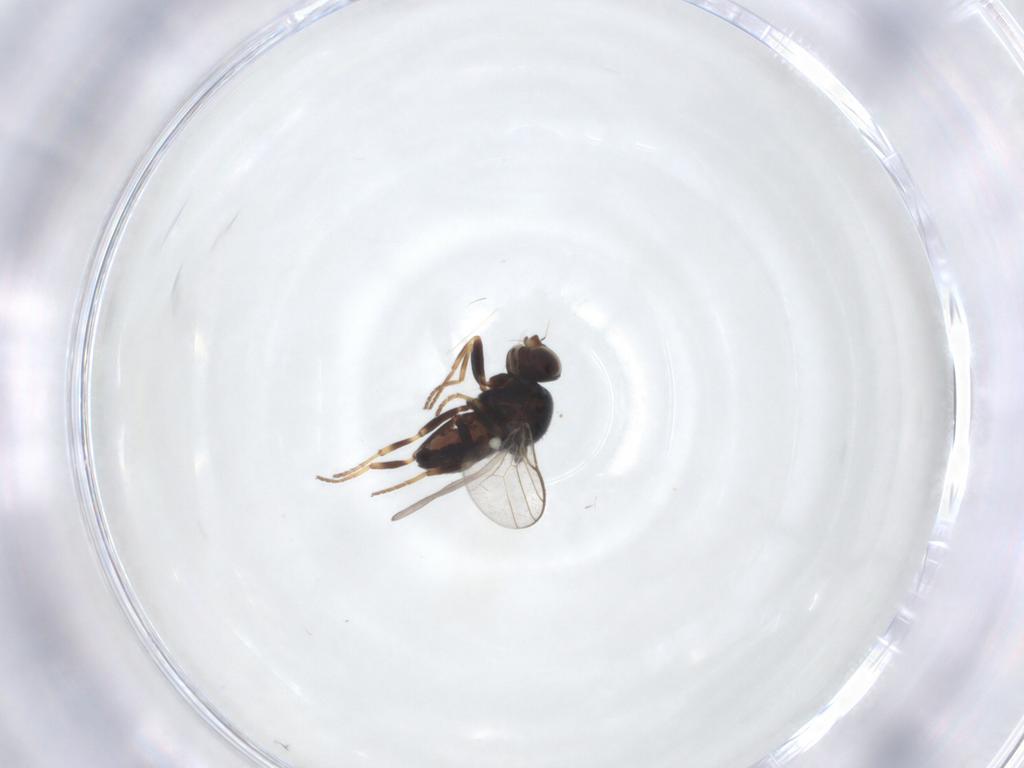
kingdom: Animalia
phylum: Arthropoda
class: Insecta
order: Diptera
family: Chloropidae
